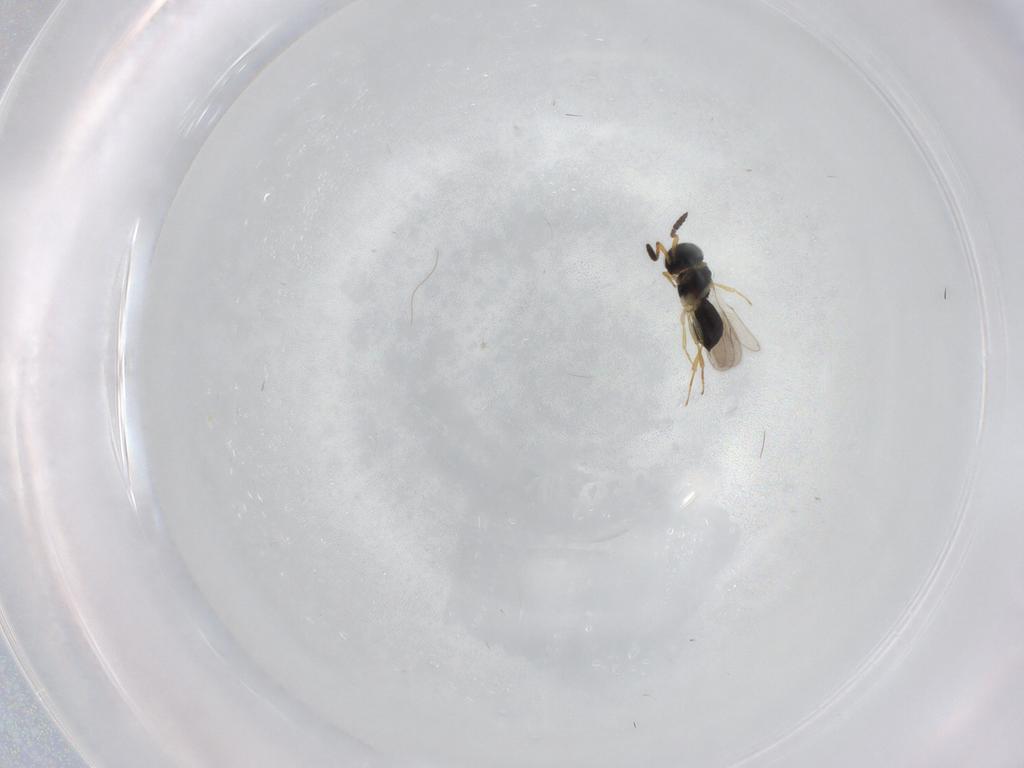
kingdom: Animalia
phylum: Arthropoda
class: Insecta
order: Hymenoptera
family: Scelionidae
